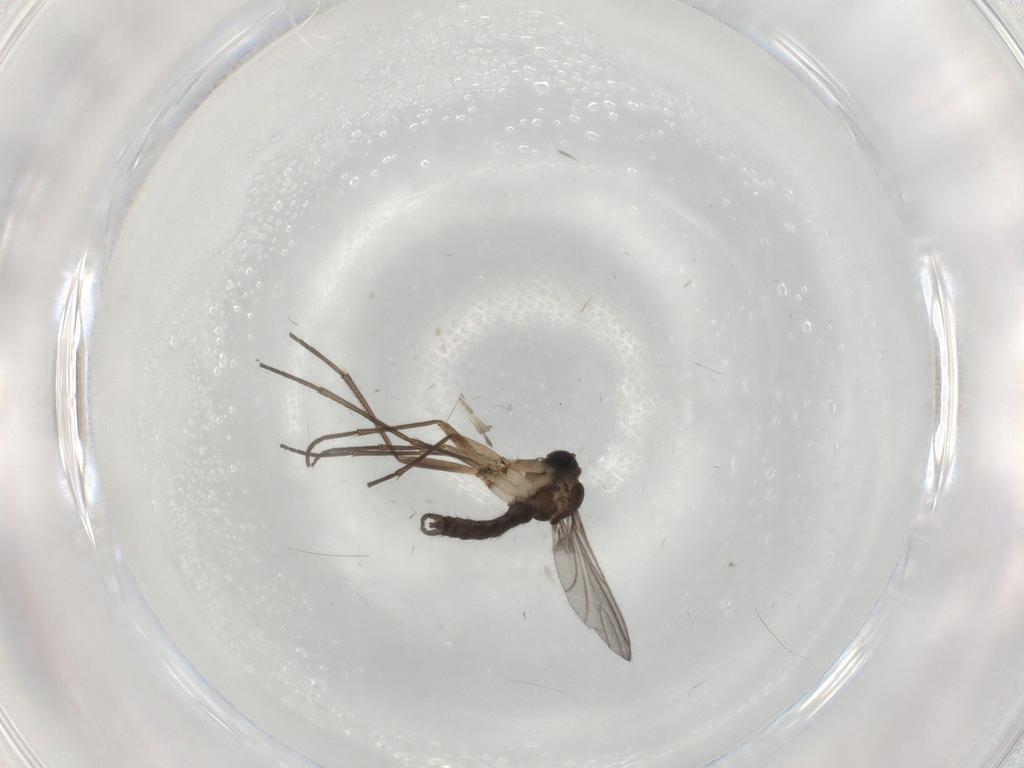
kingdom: Animalia
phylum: Arthropoda
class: Insecta
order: Diptera
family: Sciaridae
